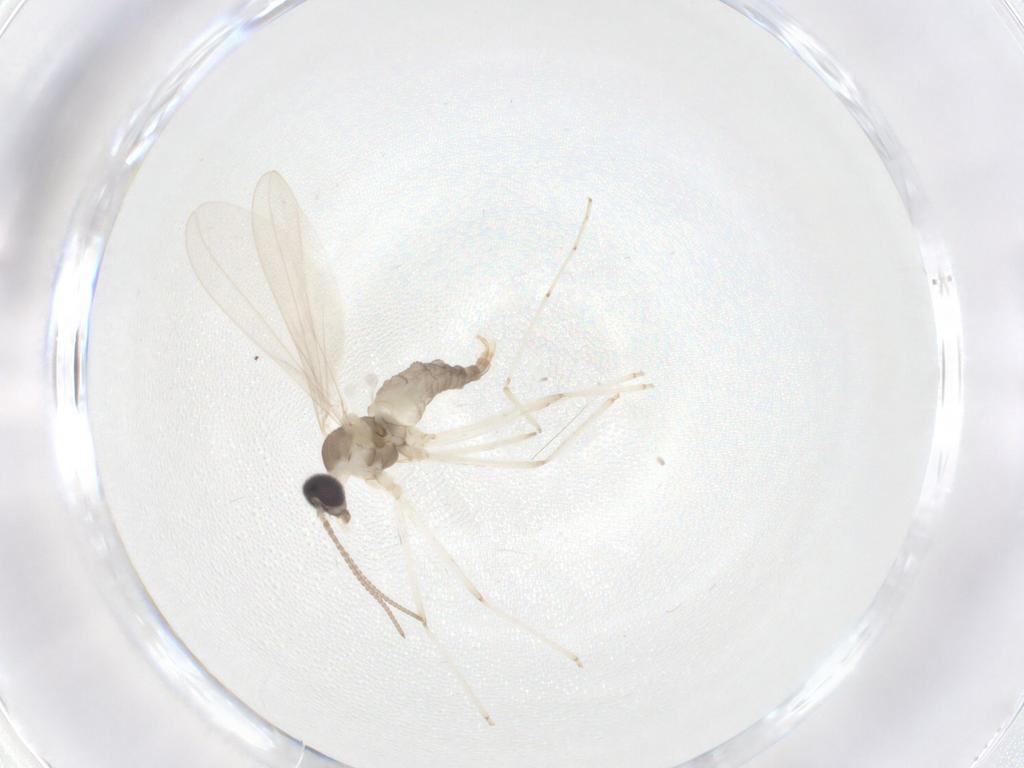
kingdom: Animalia
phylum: Arthropoda
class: Insecta
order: Diptera
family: Cecidomyiidae
